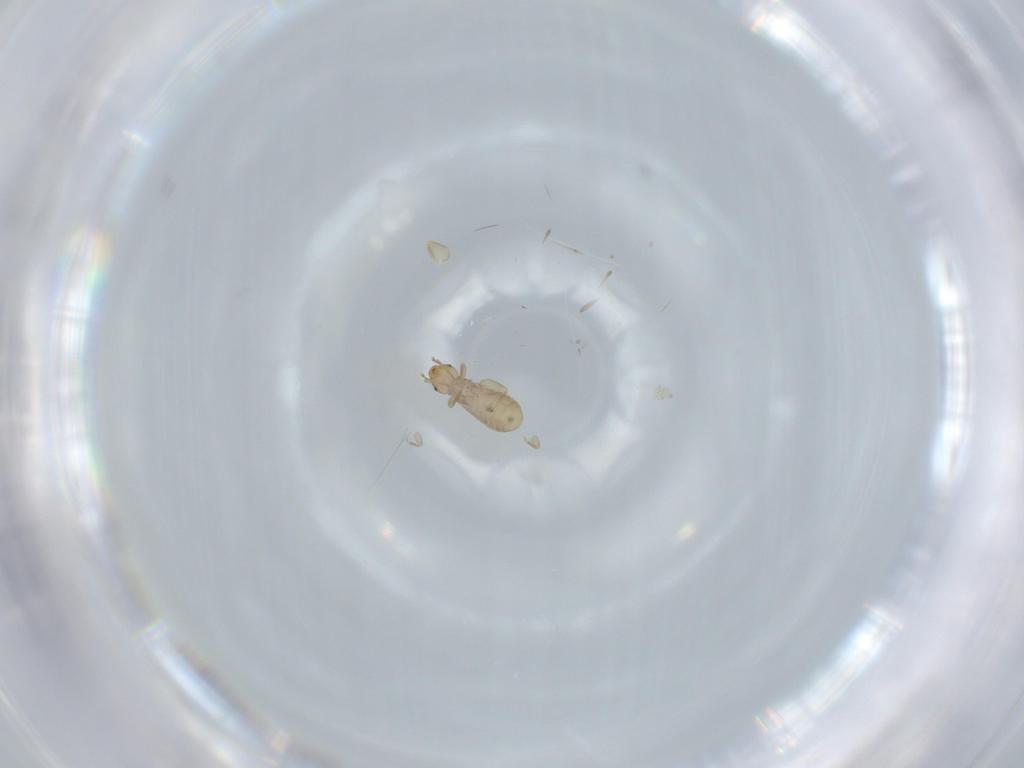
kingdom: Animalia
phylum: Arthropoda
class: Insecta
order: Psocodea
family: Liposcelididae
